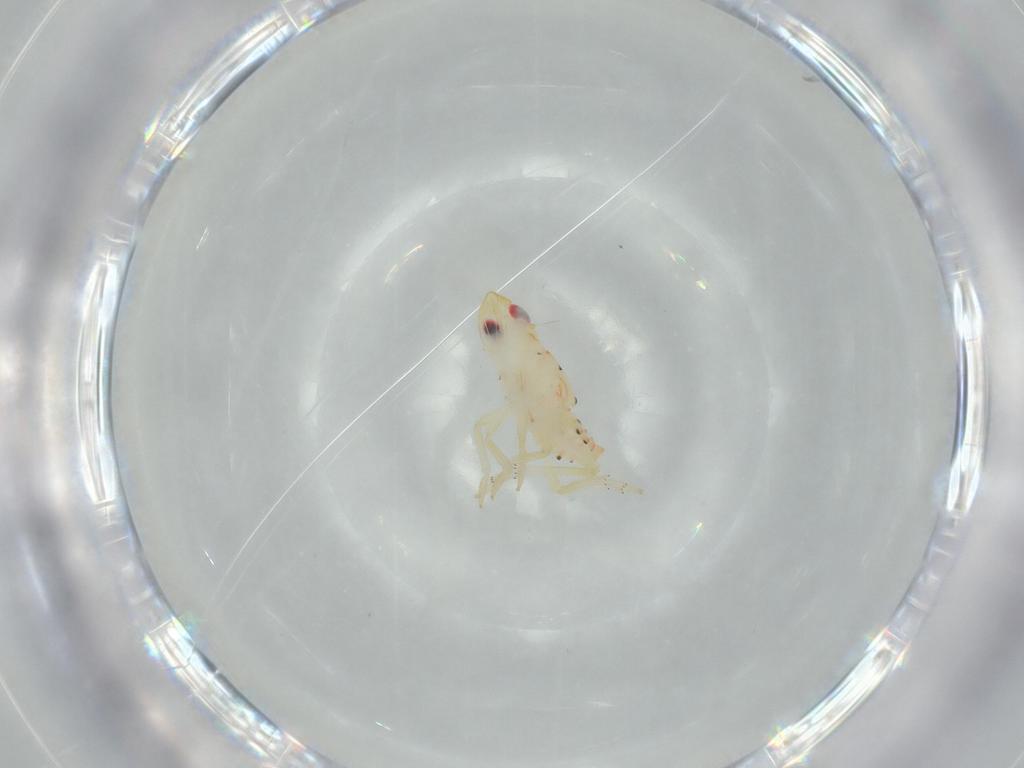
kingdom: Animalia
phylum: Arthropoda
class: Insecta
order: Hemiptera
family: Tropiduchidae
